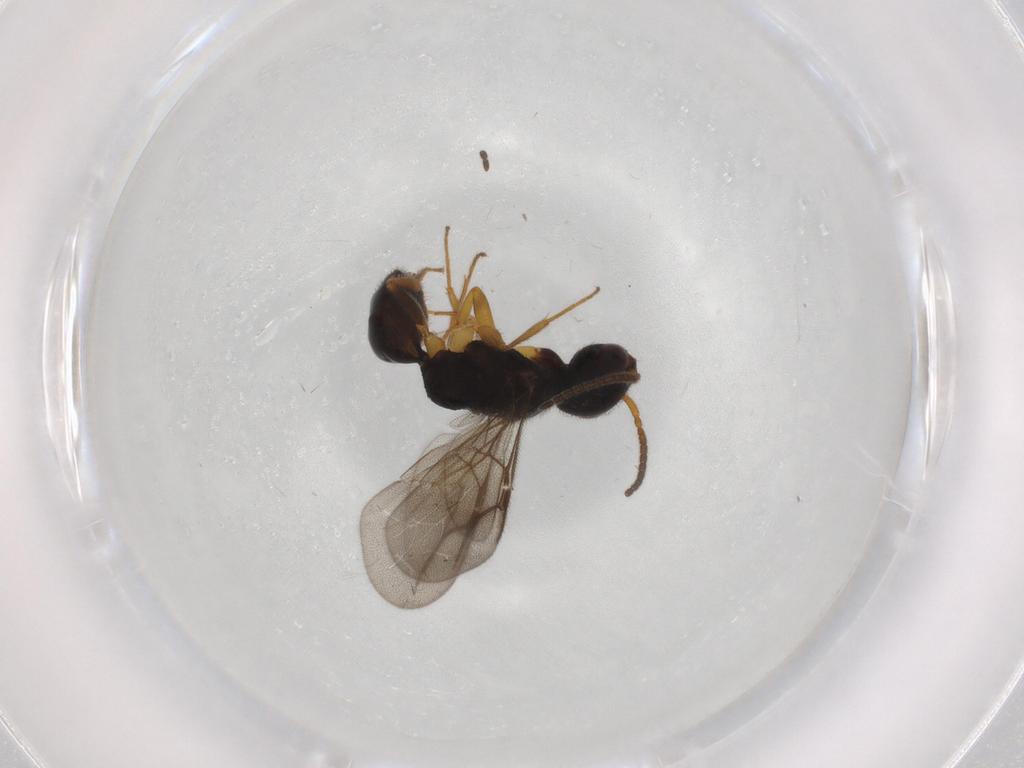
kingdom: Animalia
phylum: Arthropoda
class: Insecta
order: Hymenoptera
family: Bethylidae
